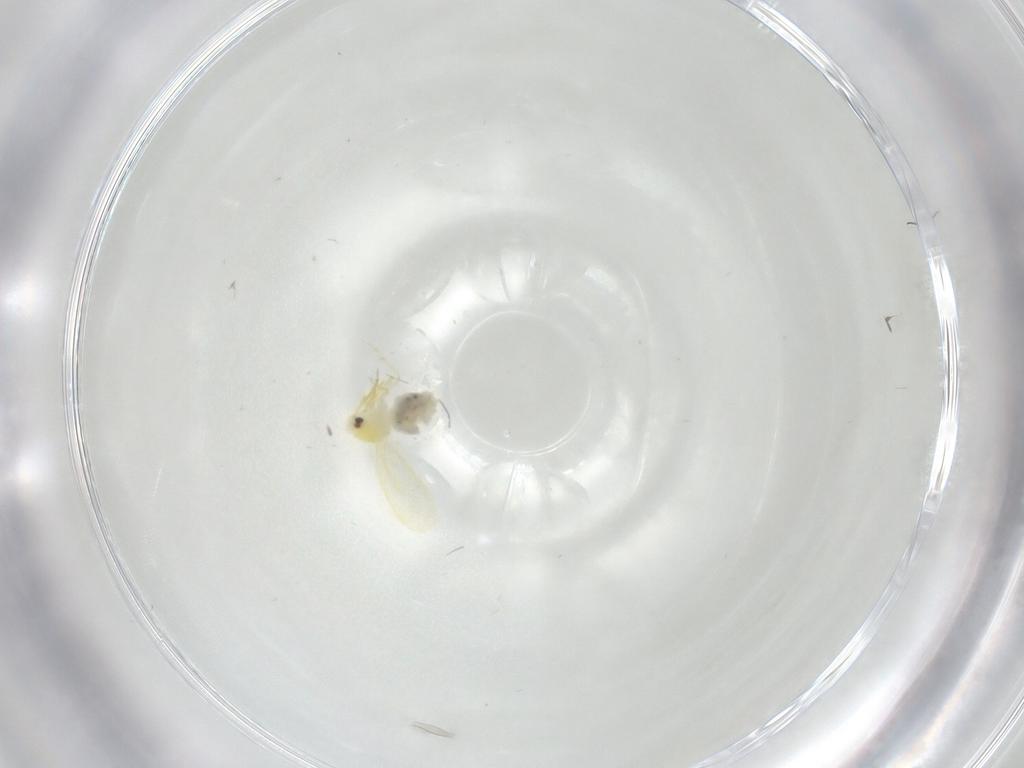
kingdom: Animalia
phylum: Arthropoda
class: Insecta
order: Hemiptera
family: Aleyrodidae
